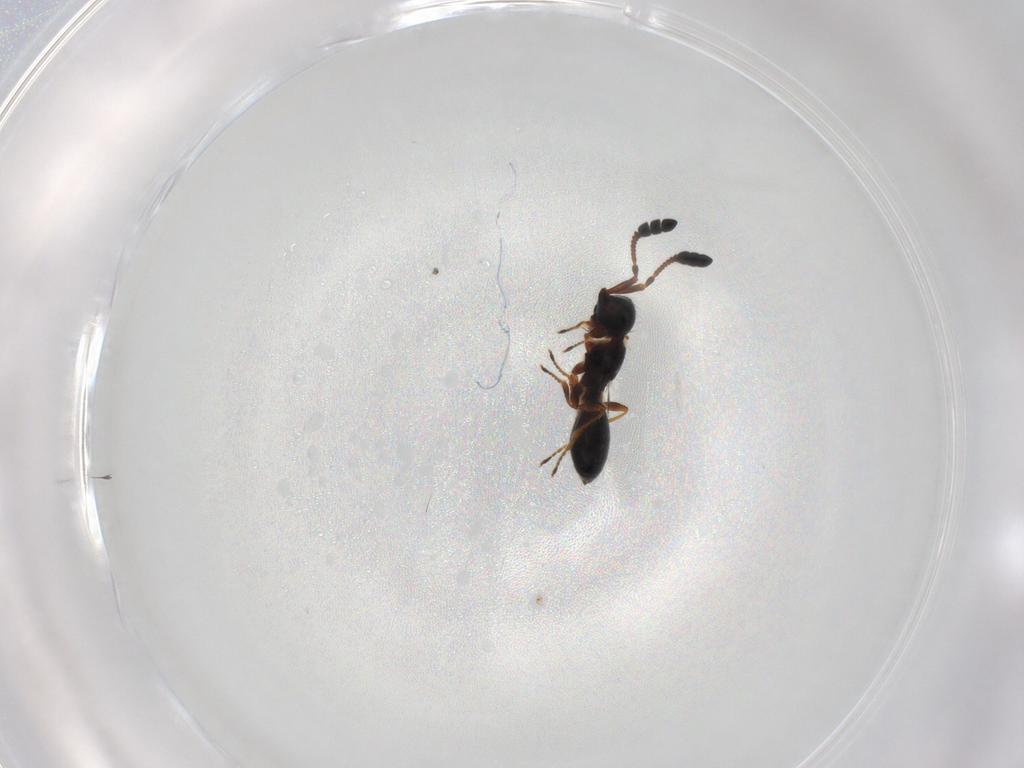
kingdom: Animalia
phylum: Arthropoda
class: Insecta
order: Hymenoptera
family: Diapriidae
